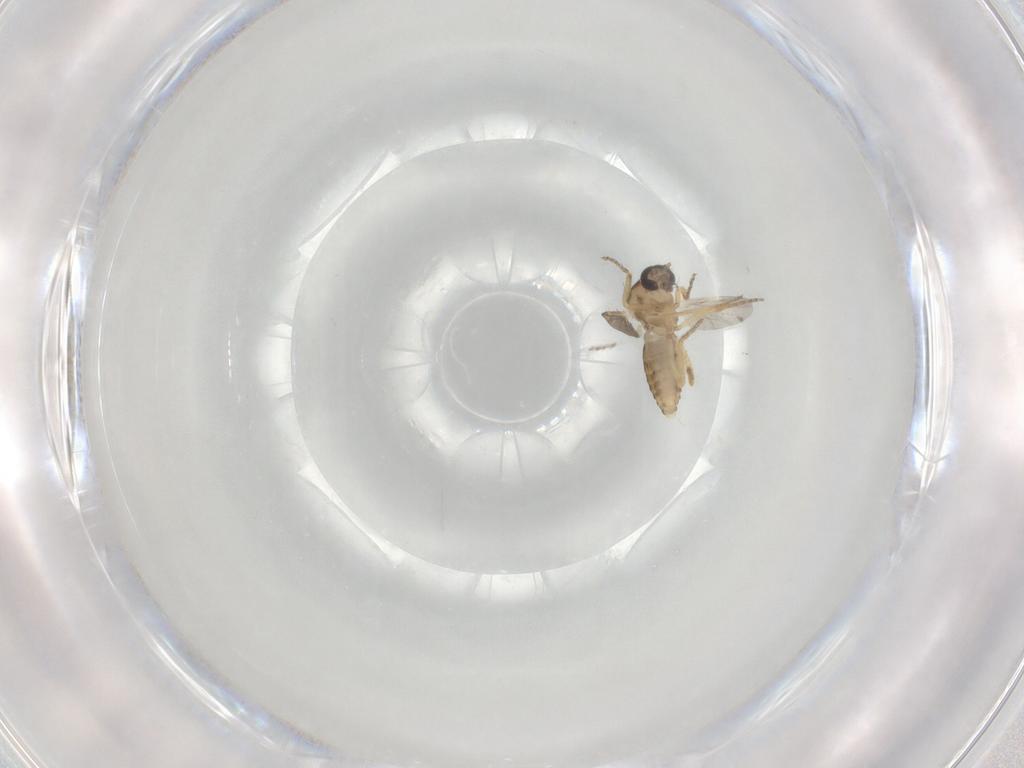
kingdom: Animalia
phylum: Arthropoda
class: Insecta
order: Diptera
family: Ceratopogonidae
